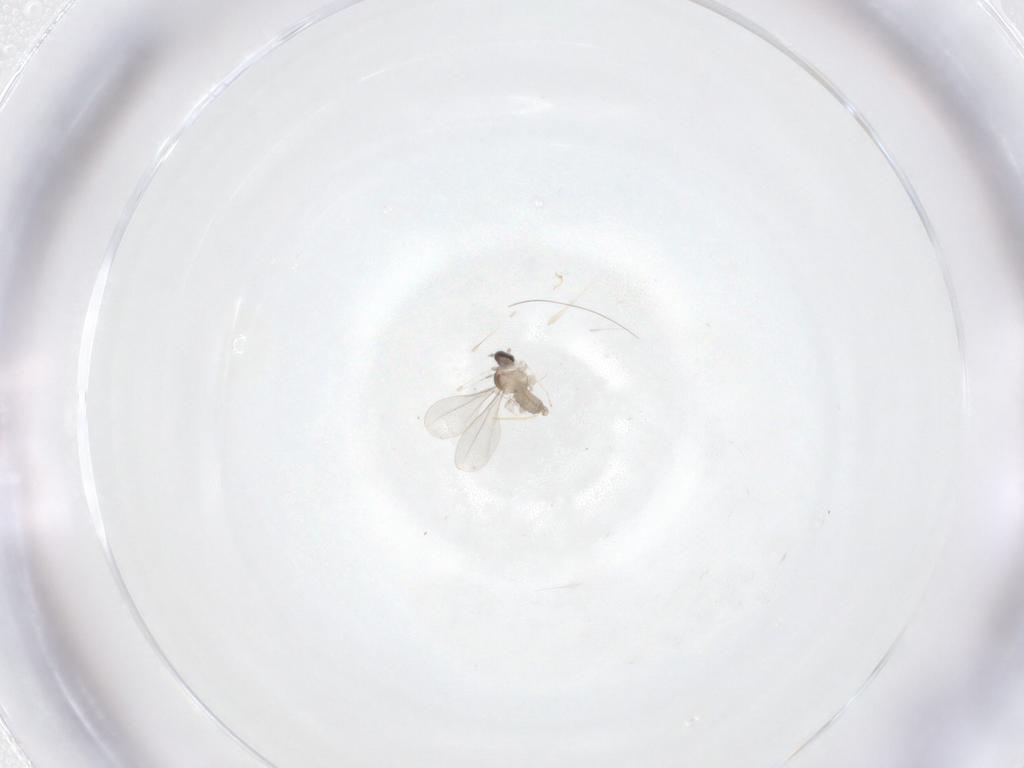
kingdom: Animalia
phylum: Arthropoda
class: Insecta
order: Diptera
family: Cecidomyiidae
